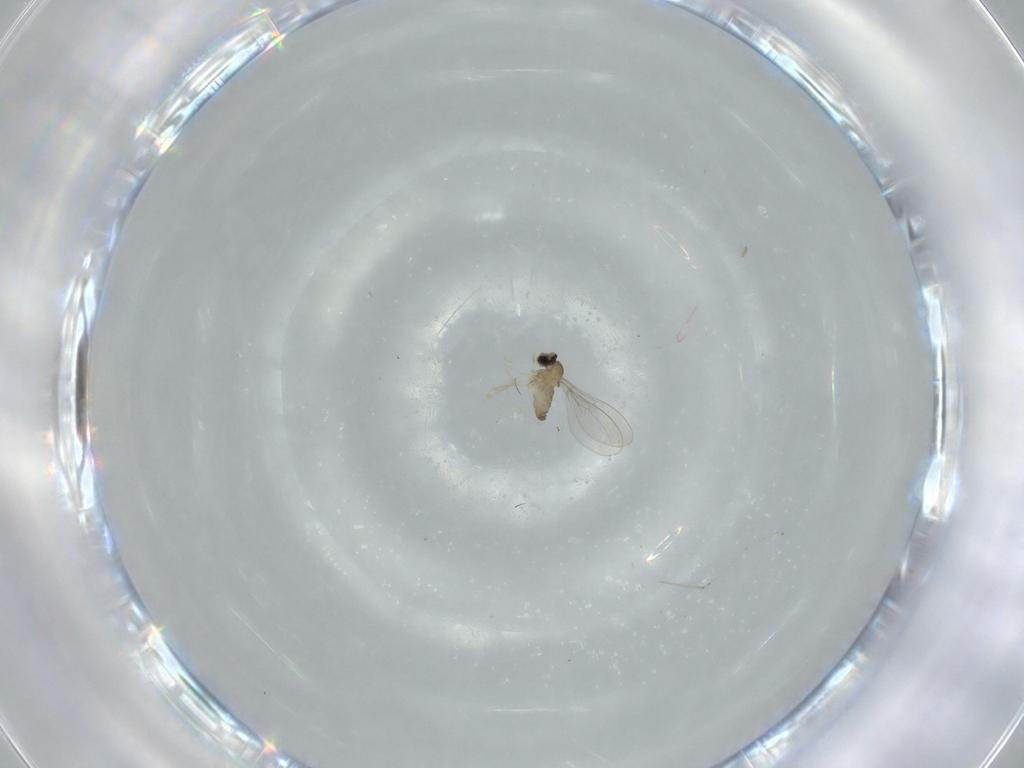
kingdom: Animalia
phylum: Arthropoda
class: Insecta
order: Diptera
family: Cecidomyiidae
